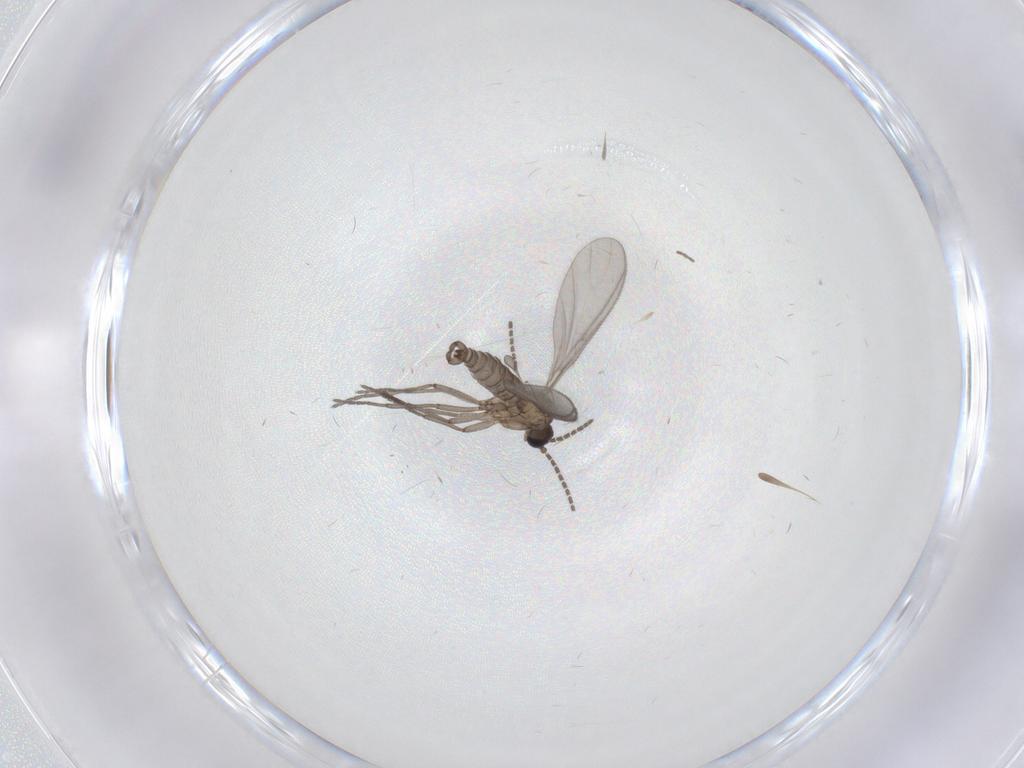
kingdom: Animalia
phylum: Arthropoda
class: Insecta
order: Diptera
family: Sciaridae
